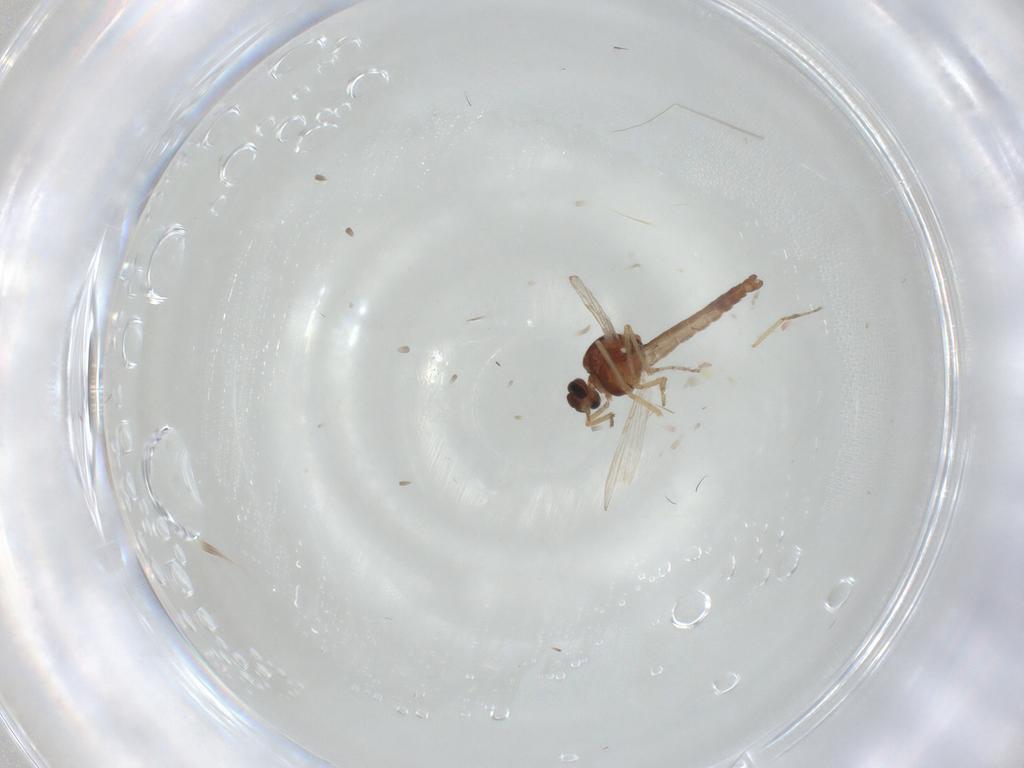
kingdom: Animalia
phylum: Arthropoda
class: Insecta
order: Diptera
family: Ceratopogonidae
